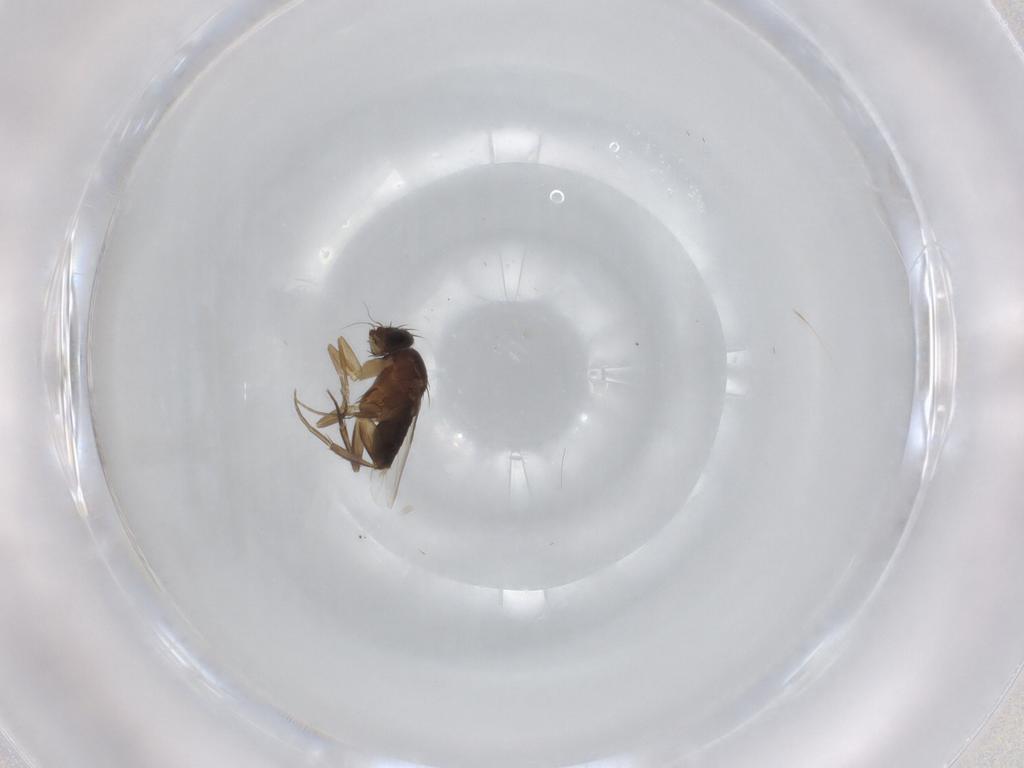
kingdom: Animalia
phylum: Arthropoda
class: Insecta
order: Diptera
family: Phoridae
